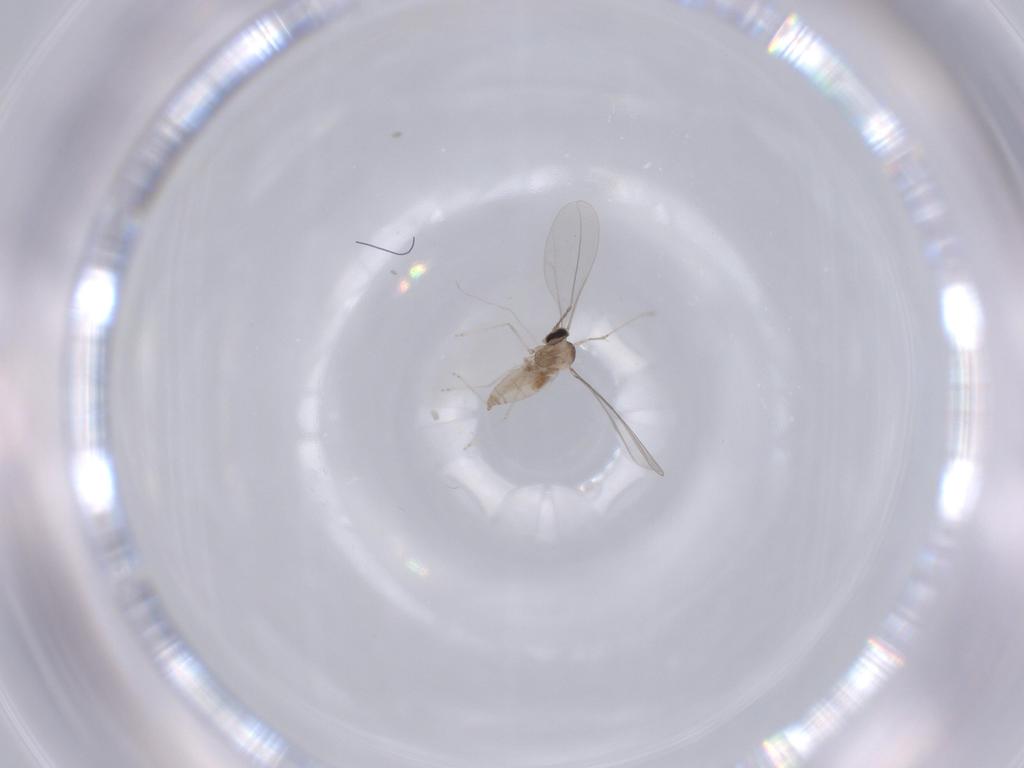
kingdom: Animalia
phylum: Arthropoda
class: Insecta
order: Diptera
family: Cecidomyiidae
